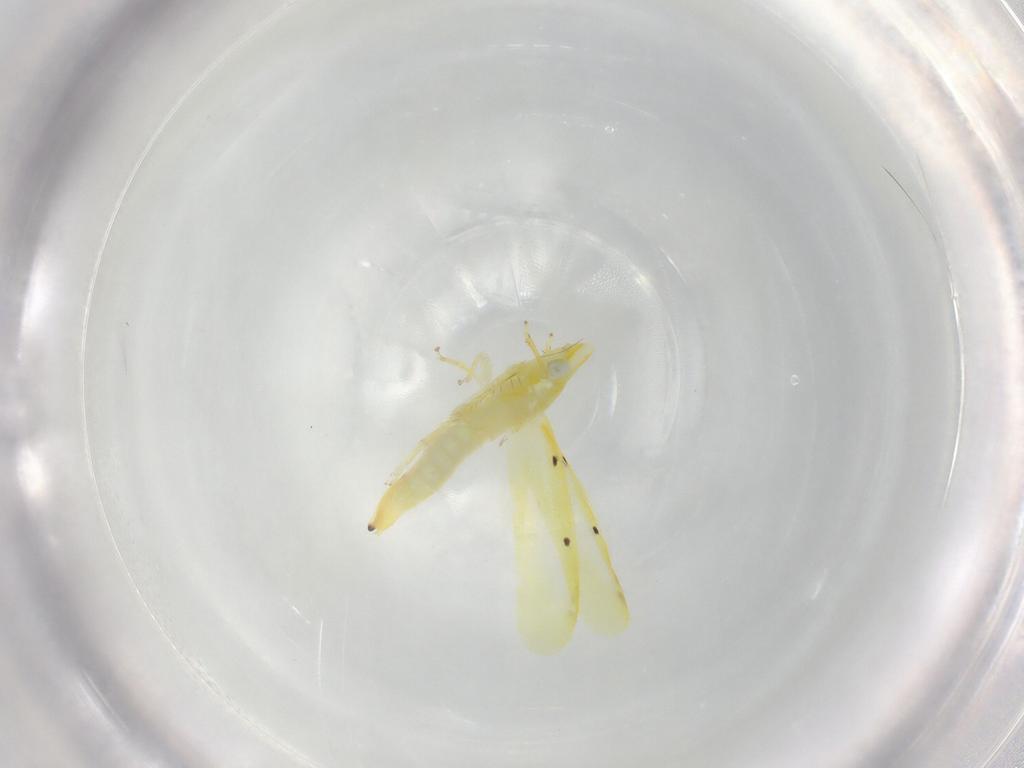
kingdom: Animalia
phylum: Arthropoda
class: Insecta
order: Hemiptera
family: Cicadellidae
